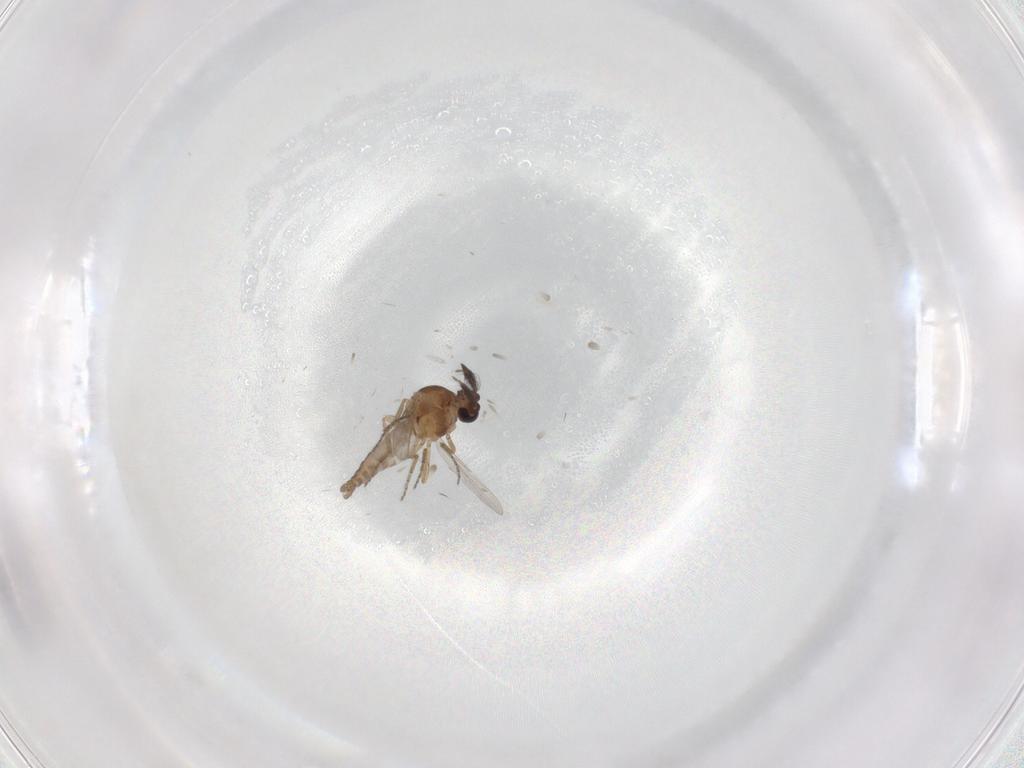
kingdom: Animalia
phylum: Arthropoda
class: Insecta
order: Diptera
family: Ceratopogonidae
